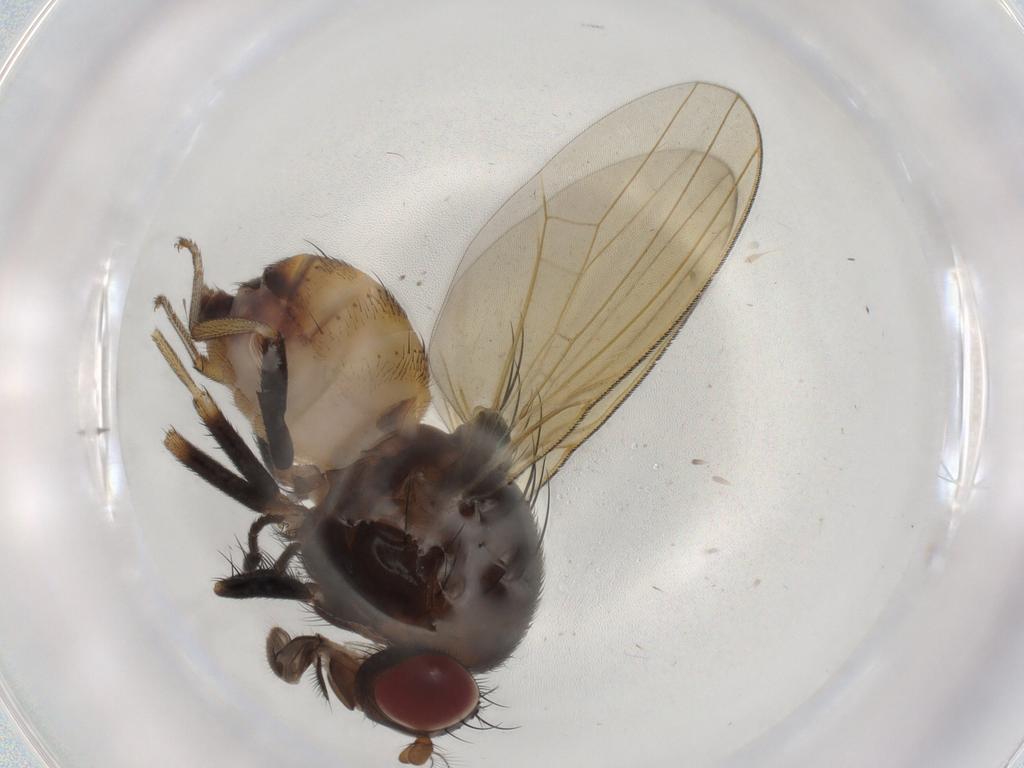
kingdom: Animalia
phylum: Arthropoda
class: Insecta
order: Diptera
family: Lauxaniidae
